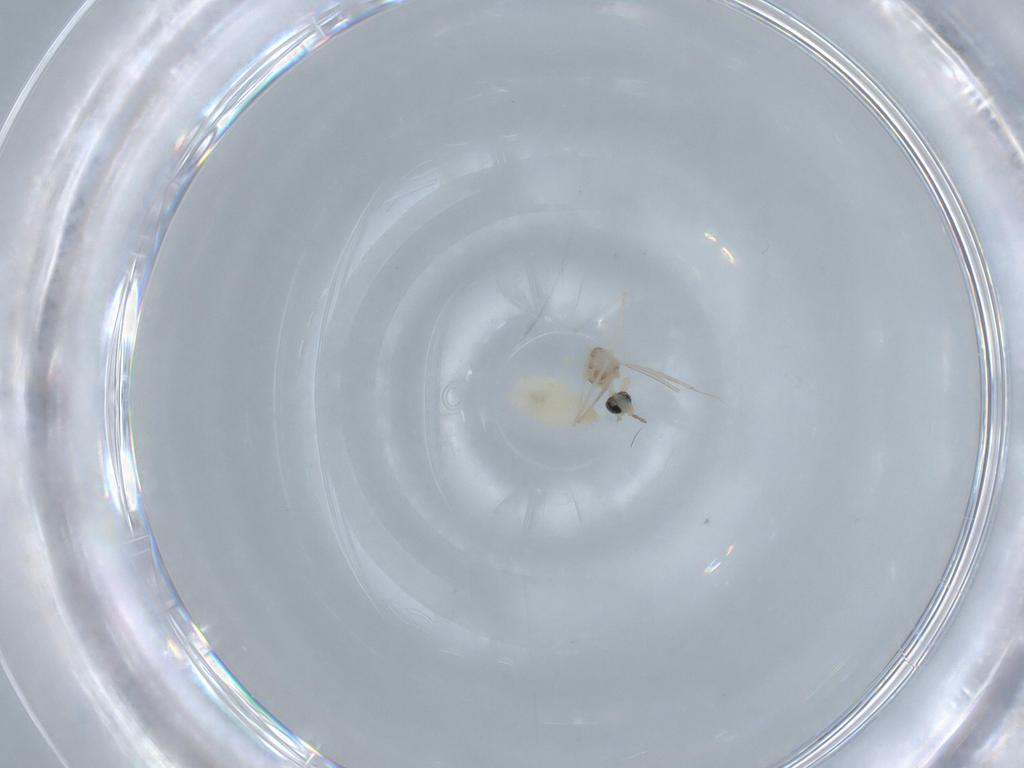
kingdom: Animalia
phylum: Arthropoda
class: Insecta
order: Diptera
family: Cecidomyiidae
